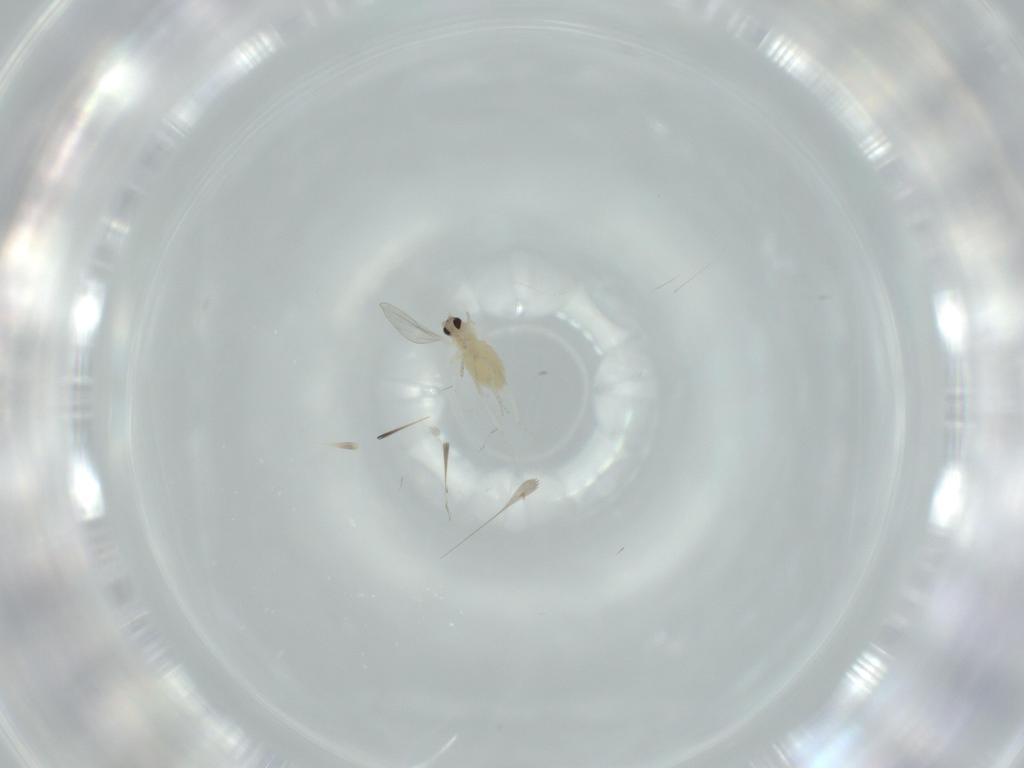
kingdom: Animalia
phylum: Arthropoda
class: Insecta
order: Diptera
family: Cecidomyiidae
